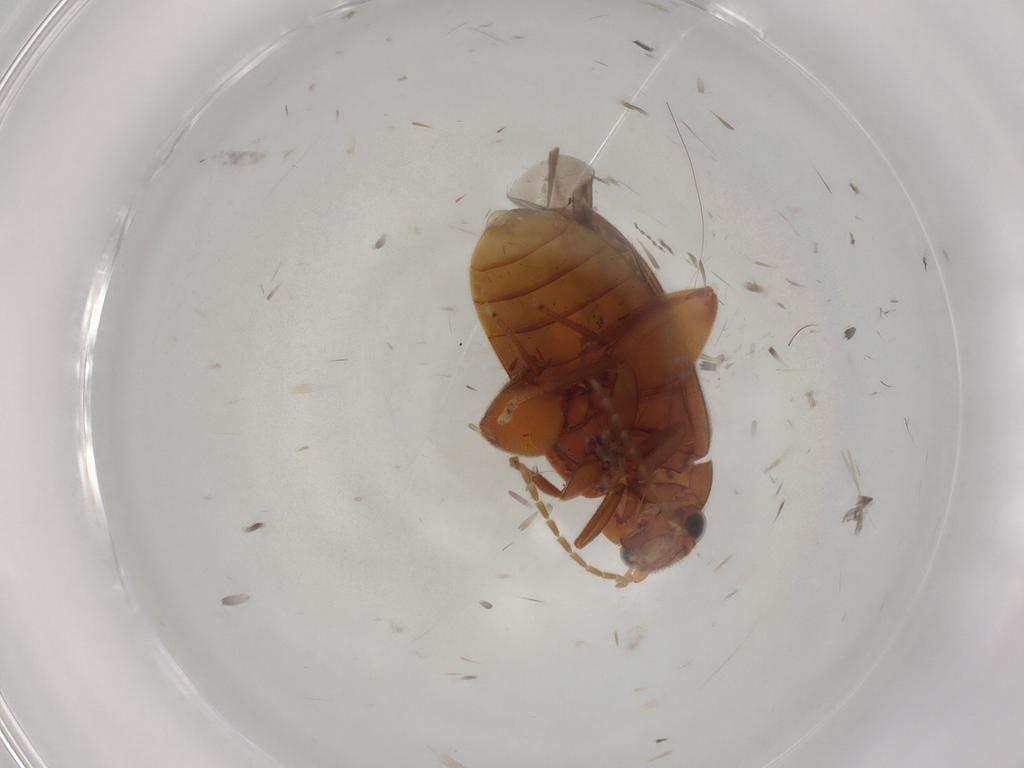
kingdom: Animalia
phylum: Arthropoda
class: Insecta
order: Coleoptera
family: Scirtidae
